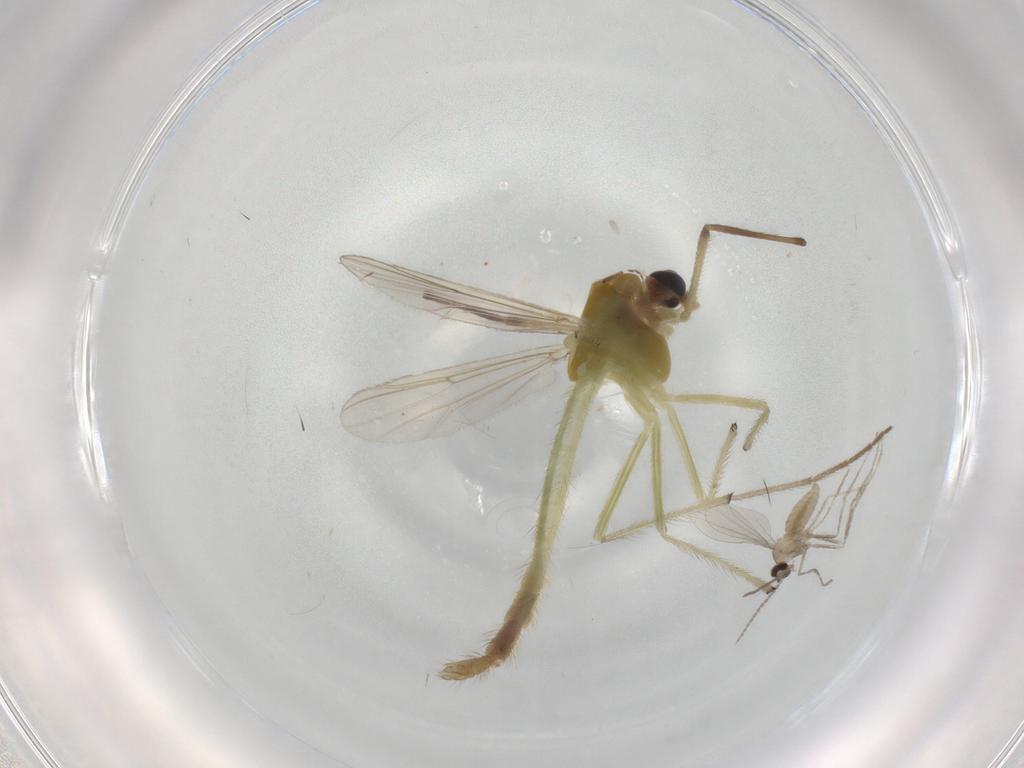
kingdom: Animalia
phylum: Arthropoda
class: Insecta
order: Diptera
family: Chironomidae
